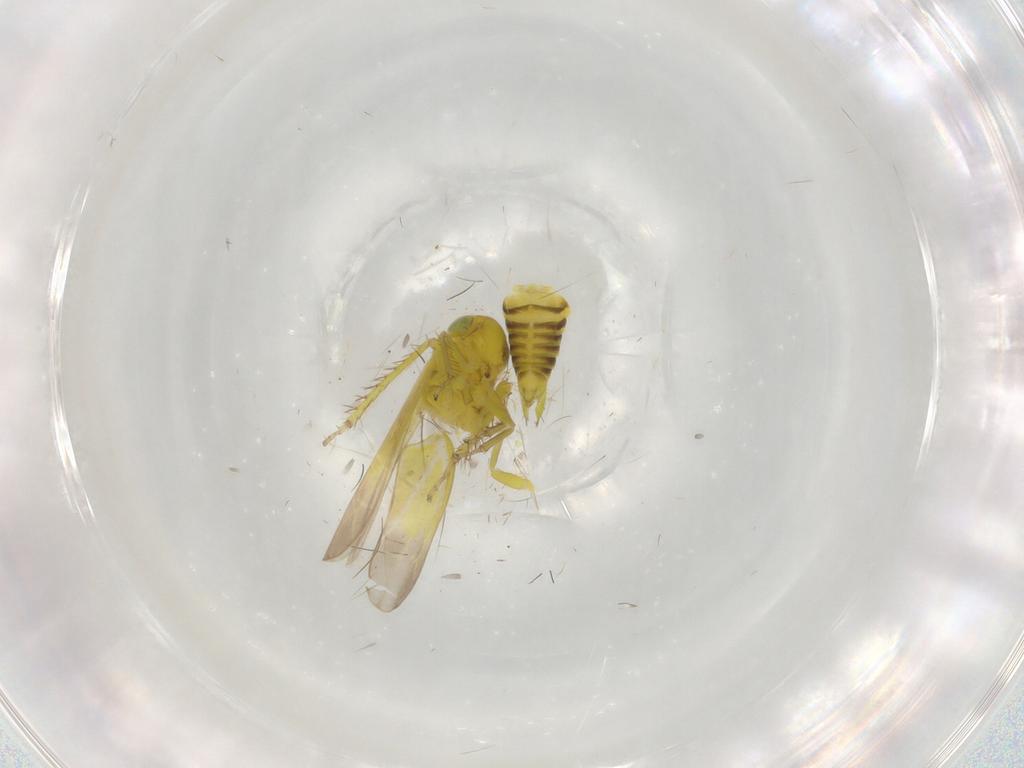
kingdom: Animalia
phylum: Arthropoda
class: Insecta
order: Hemiptera
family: Cicadellidae
